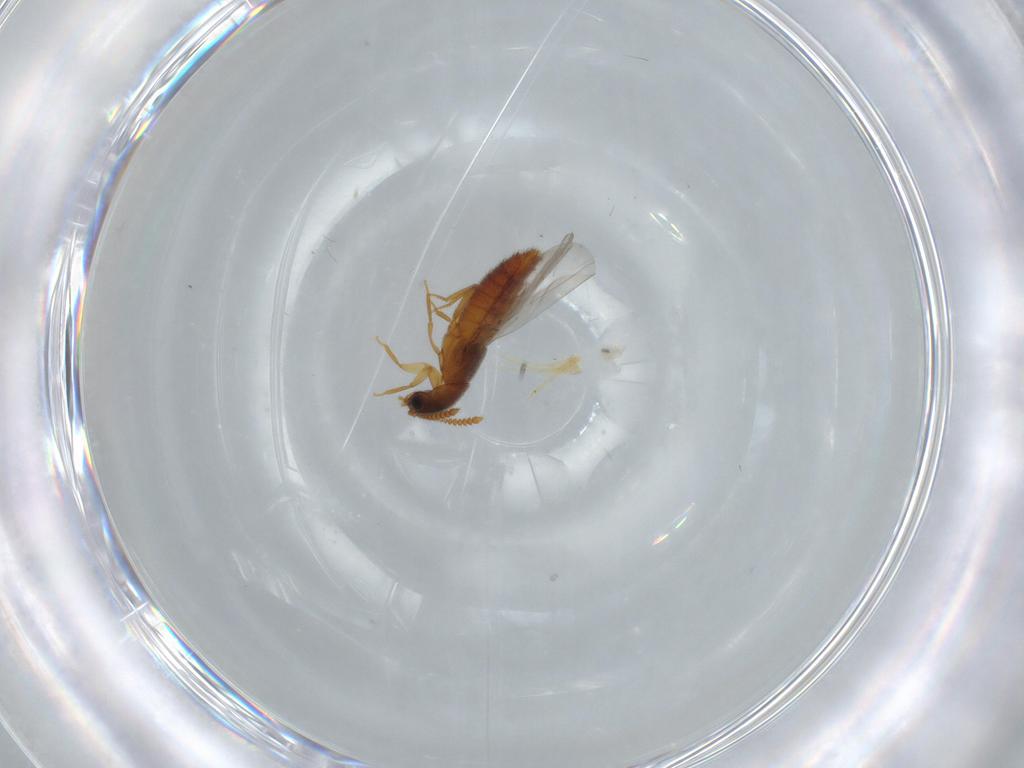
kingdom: Animalia
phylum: Arthropoda
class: Insecta
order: Coleoptera
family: Staphylinidae
